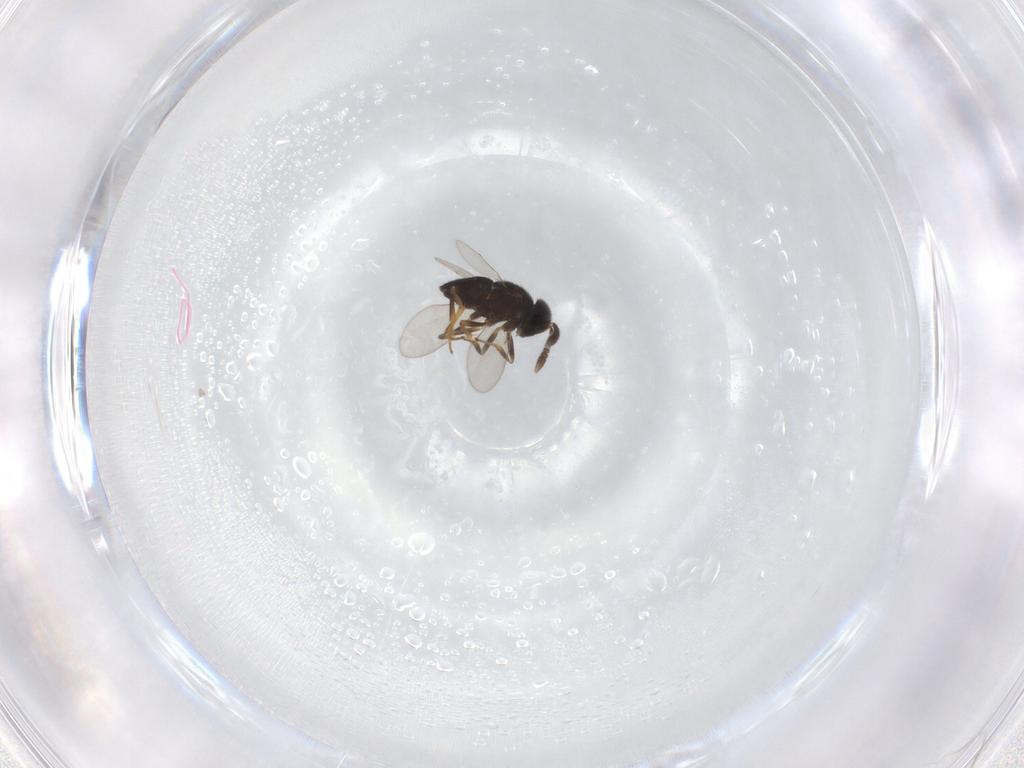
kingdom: Animalia
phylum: Arthropoda
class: Insecta
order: Hymenoptera
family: Encyrtidae
